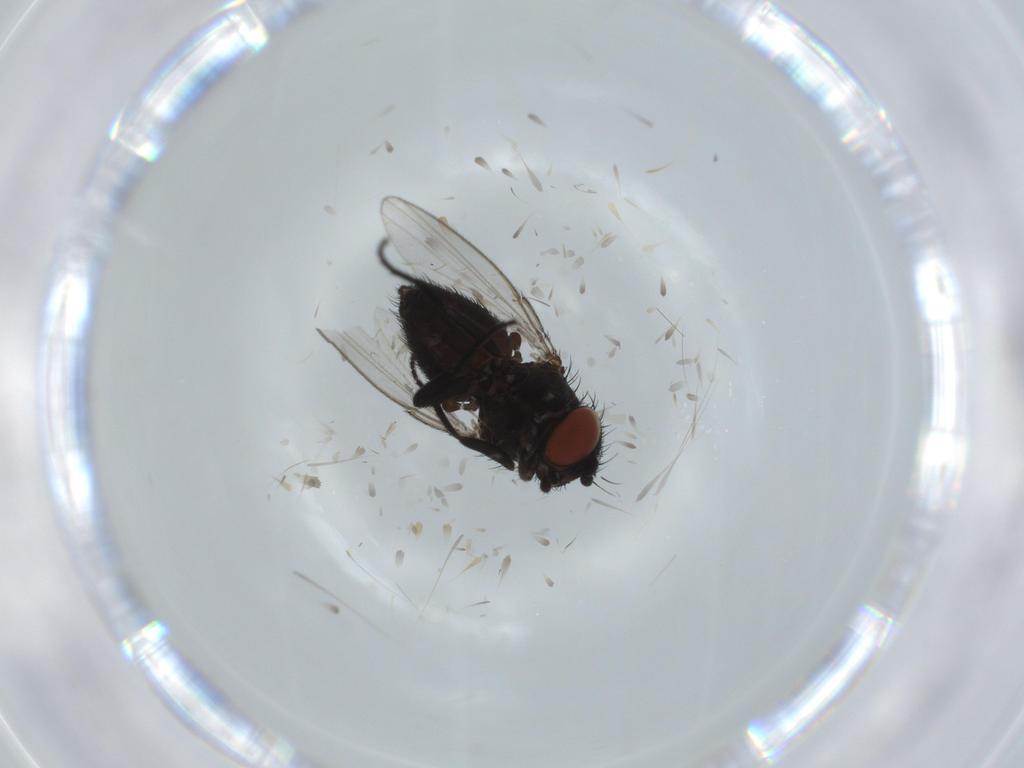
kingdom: Animalia
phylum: Arthropoda
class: Insecta
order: Diptera
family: Milichiidae
